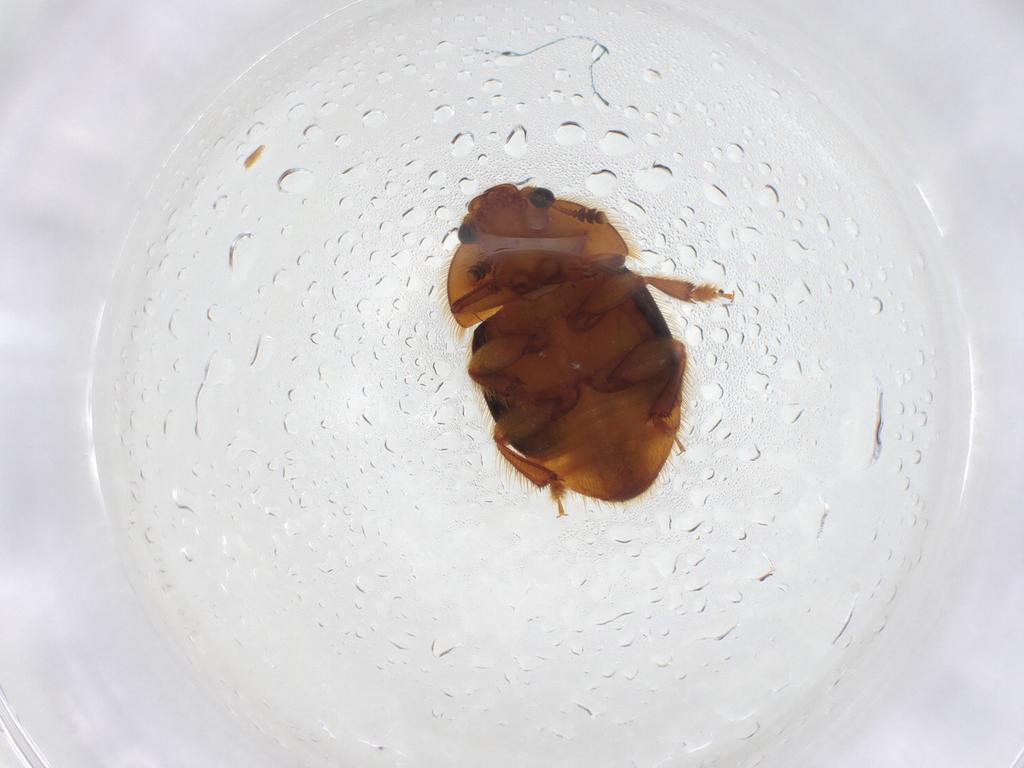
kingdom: Animalia
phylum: Arthropoda
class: Insecta
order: Coleoptera
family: Nitidulidae
